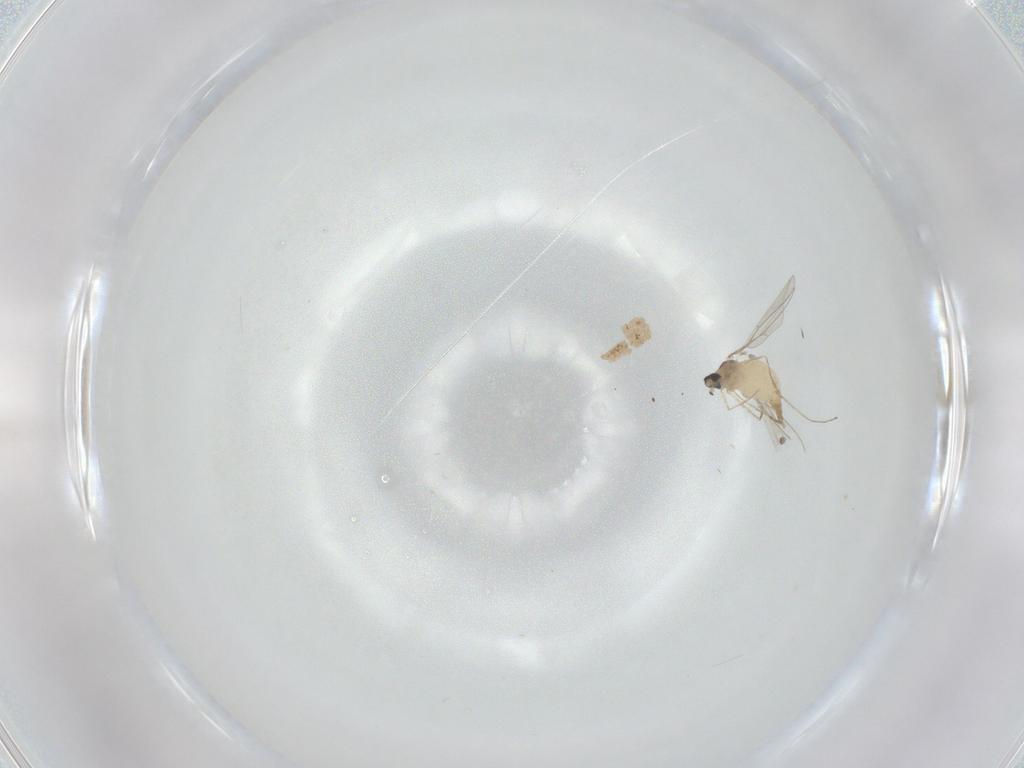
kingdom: Animalia
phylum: Arthropoda
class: Insecta
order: Diptera
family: Cecidomyiidae
